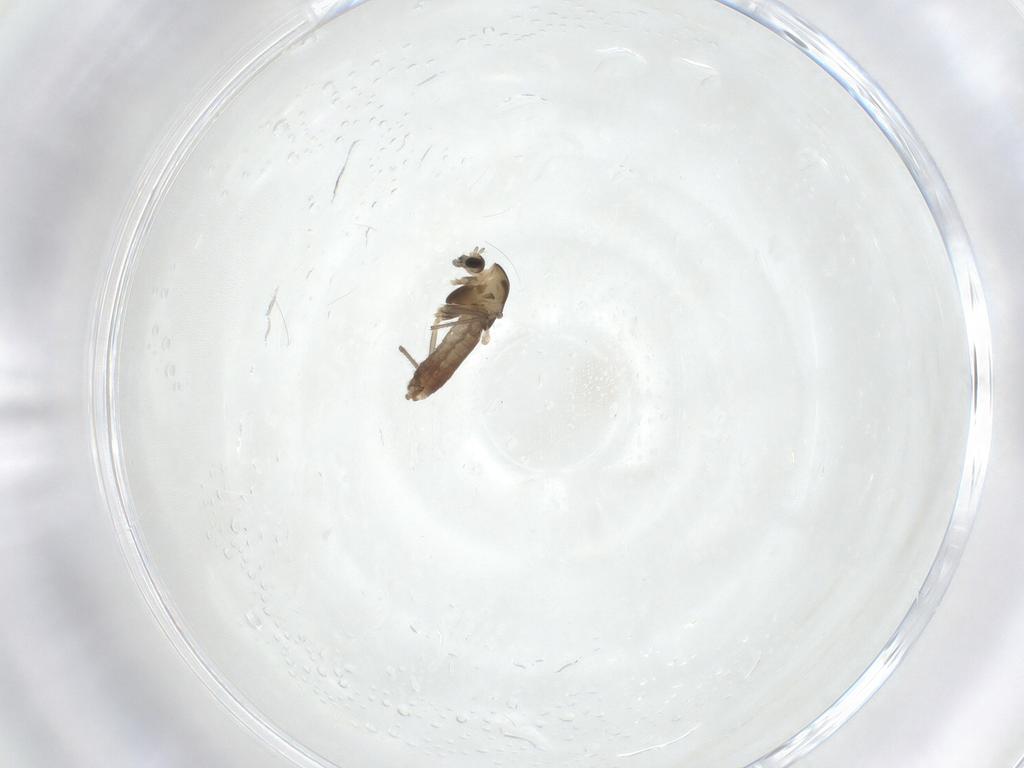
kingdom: Animalia
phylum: Arthropoda
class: Insecta
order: Diptera
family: Chironomidae
